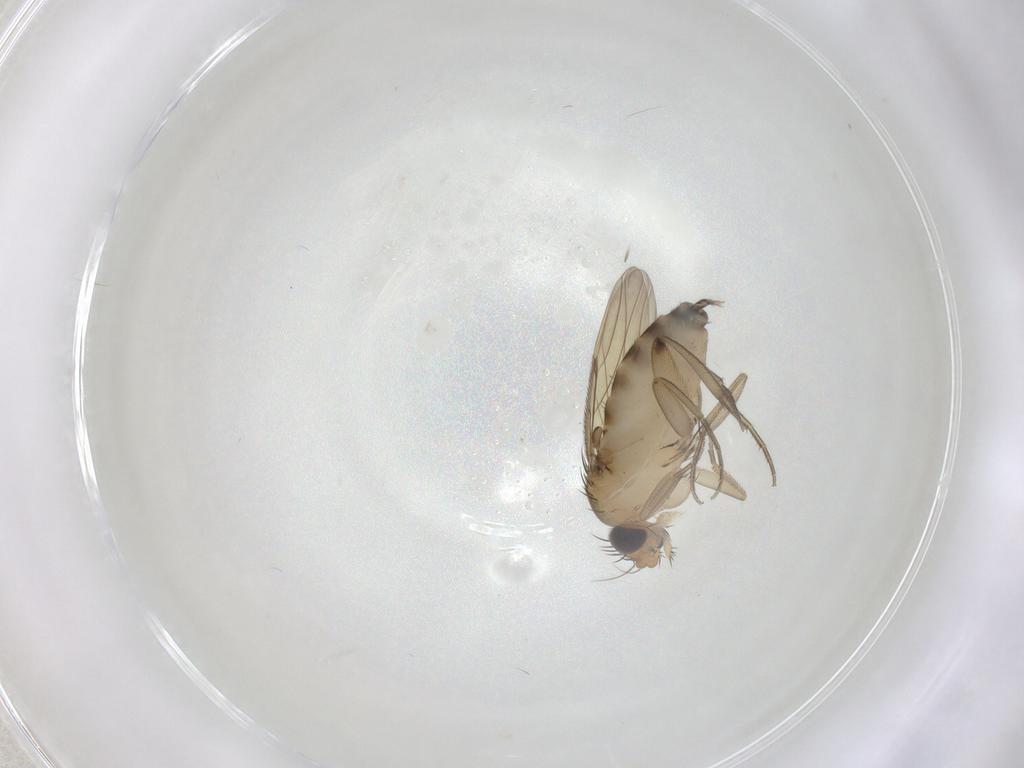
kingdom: Animalia
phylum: Arthropoda
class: Insecta
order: Diptera
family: Phoridae
